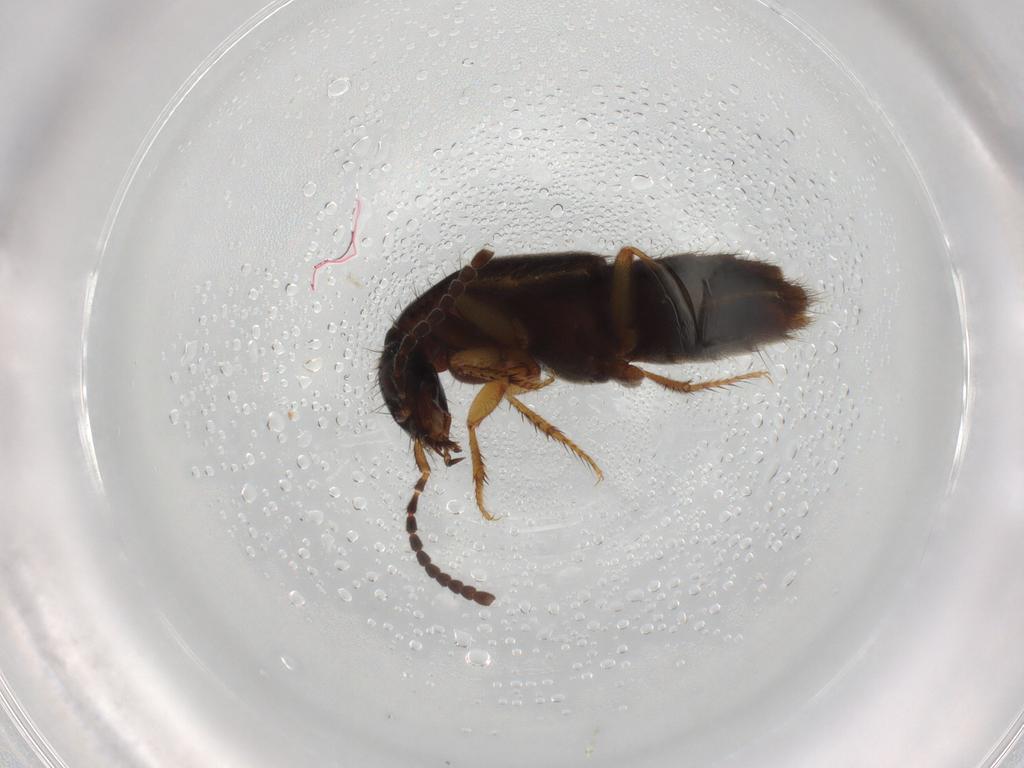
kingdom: Animalia
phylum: Arthropoda
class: Insecta
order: Coleoptera
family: Staphylinidae
